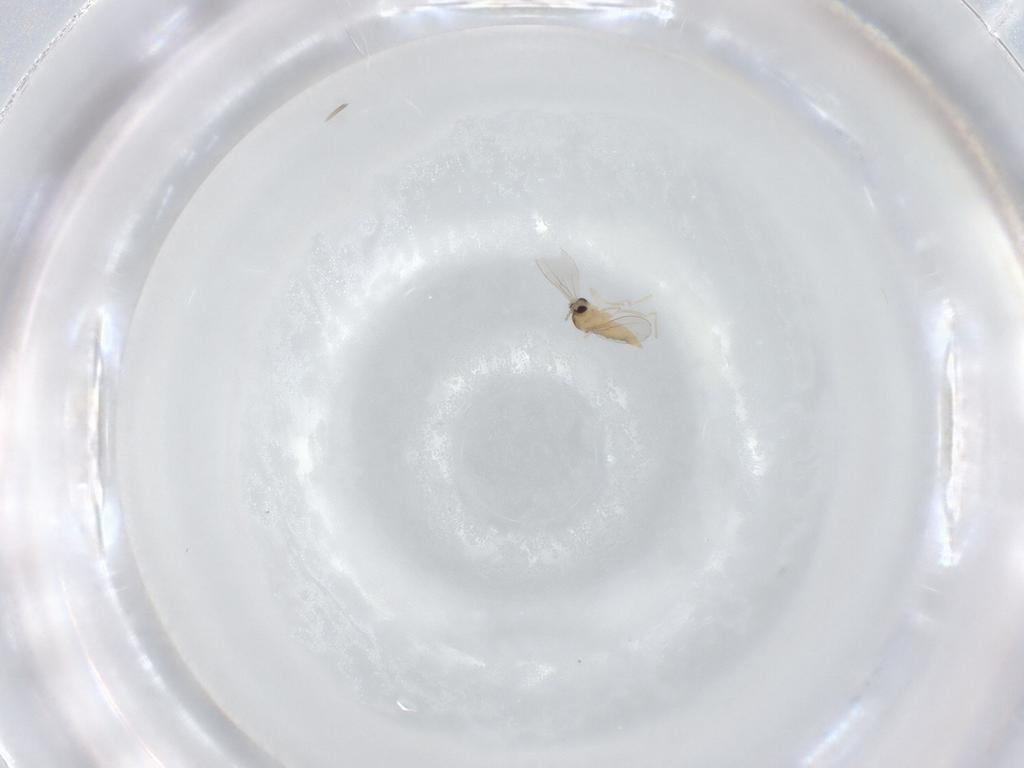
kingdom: Animalia
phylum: Arthropoda
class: Insecta
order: Diptera
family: Cecidomyiidae
